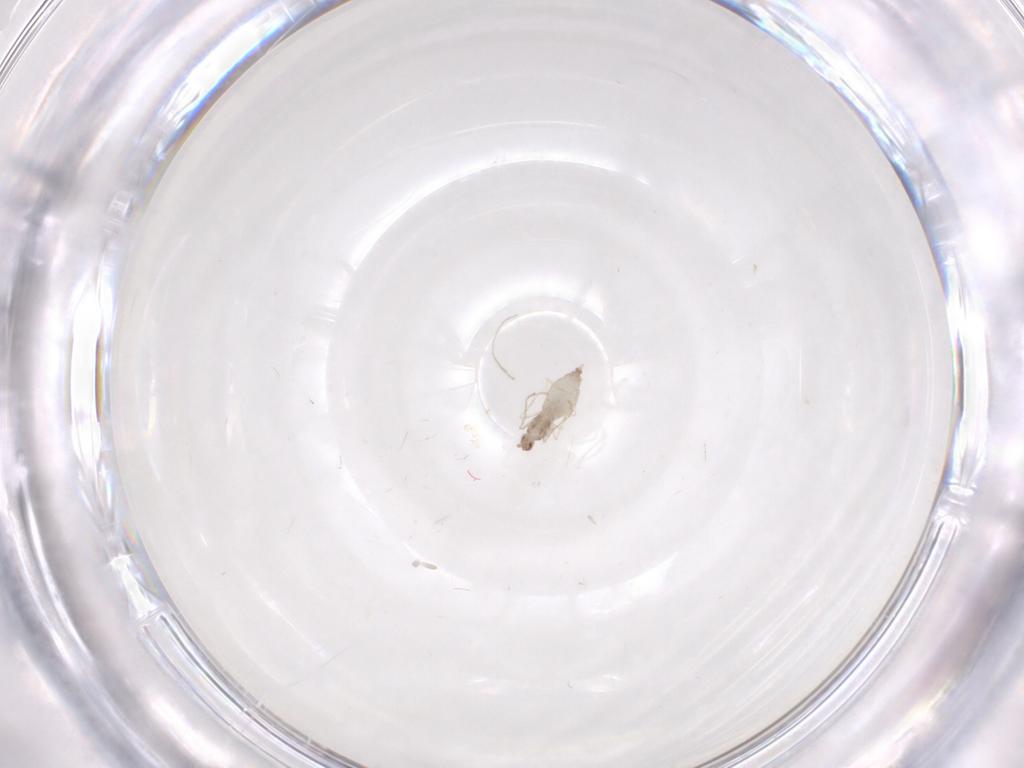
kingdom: Animalia
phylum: Arthropoda
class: Insecta
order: Diptera
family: Cecidomyiidae
